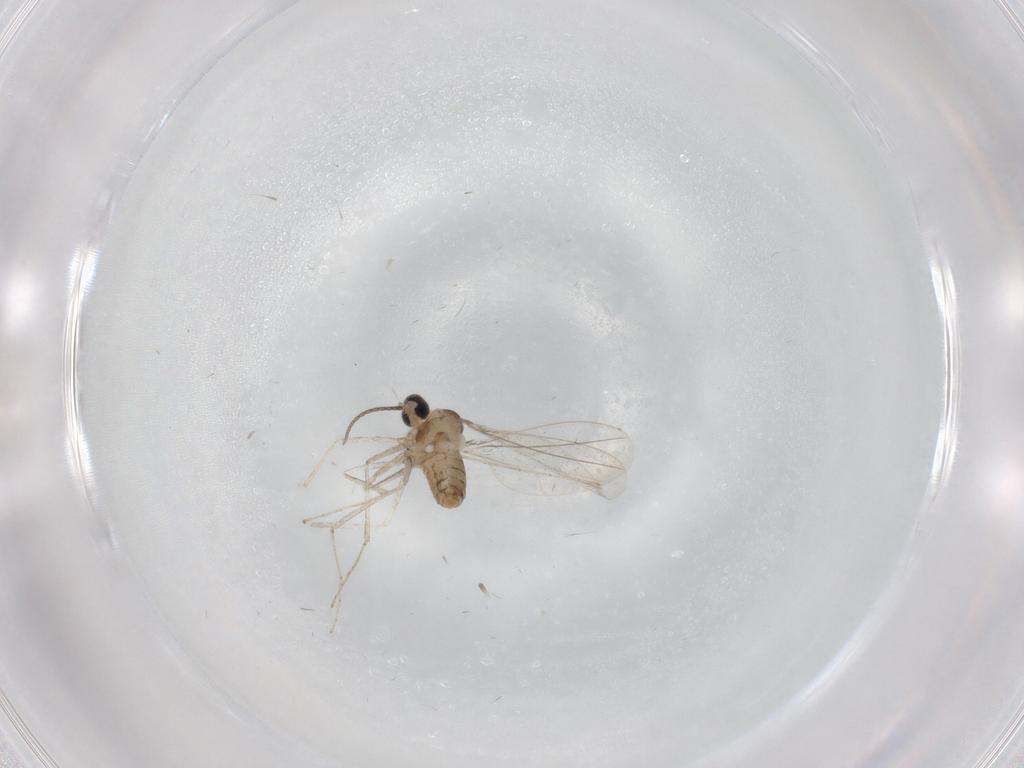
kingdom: Animalia
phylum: Arthropoda
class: Insecta
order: Diptera
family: Cecidomyiidae
